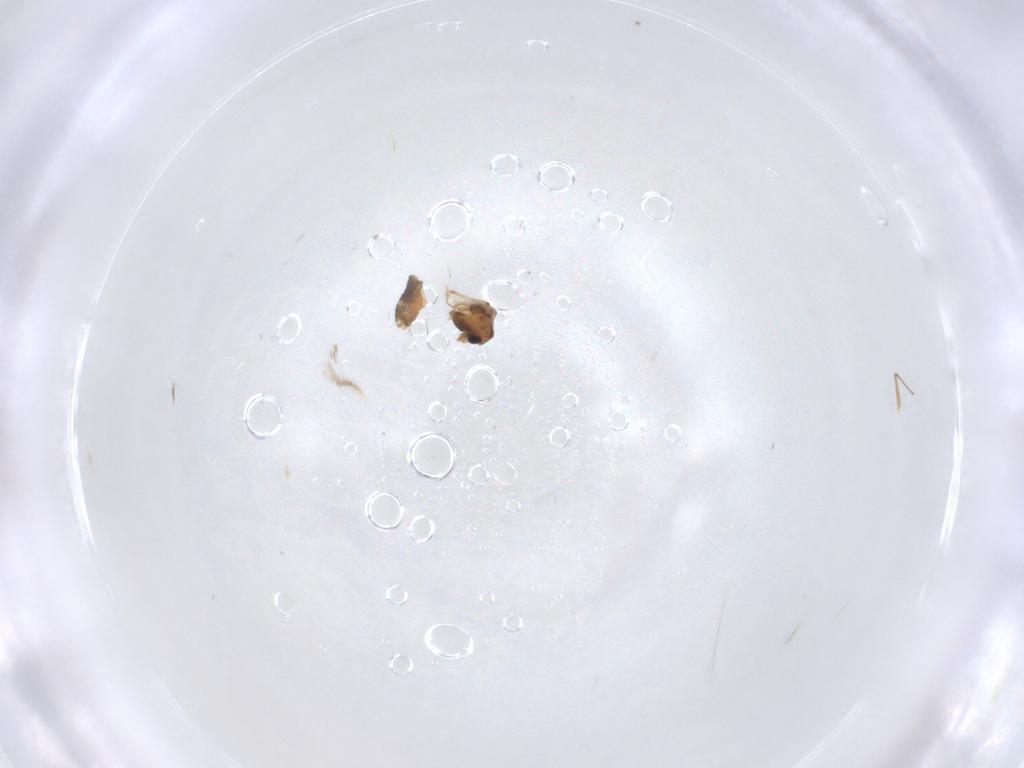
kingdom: Animalia
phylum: Arthropoda
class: Insecta
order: Diptera
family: Chironomidae
